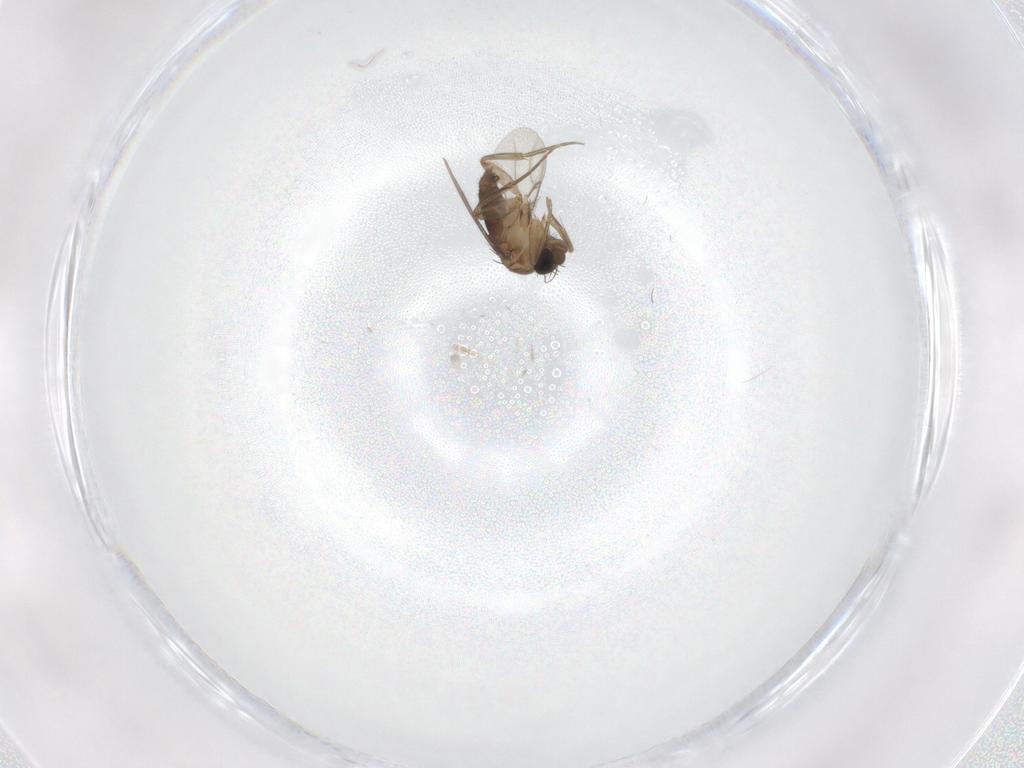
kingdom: Animalia
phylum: Arthropoda
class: Insecta
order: Diptera
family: Phoridae
